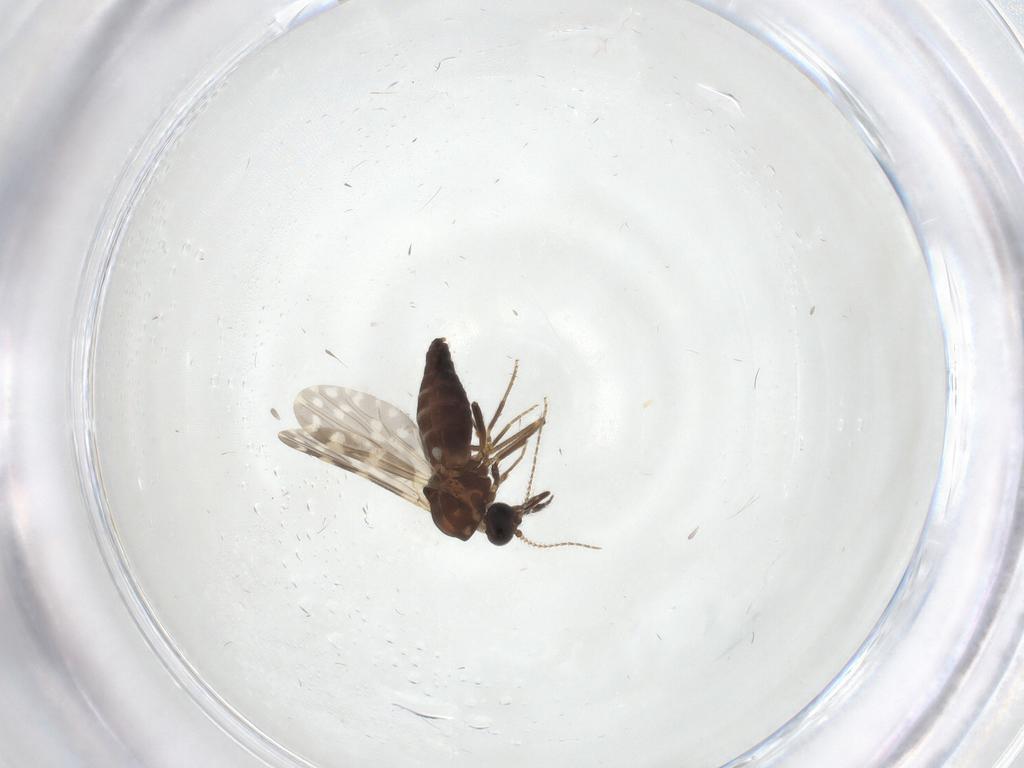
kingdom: Animalia
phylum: Arthropoda
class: Insecta
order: Diptera
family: Ceratopogonidae
